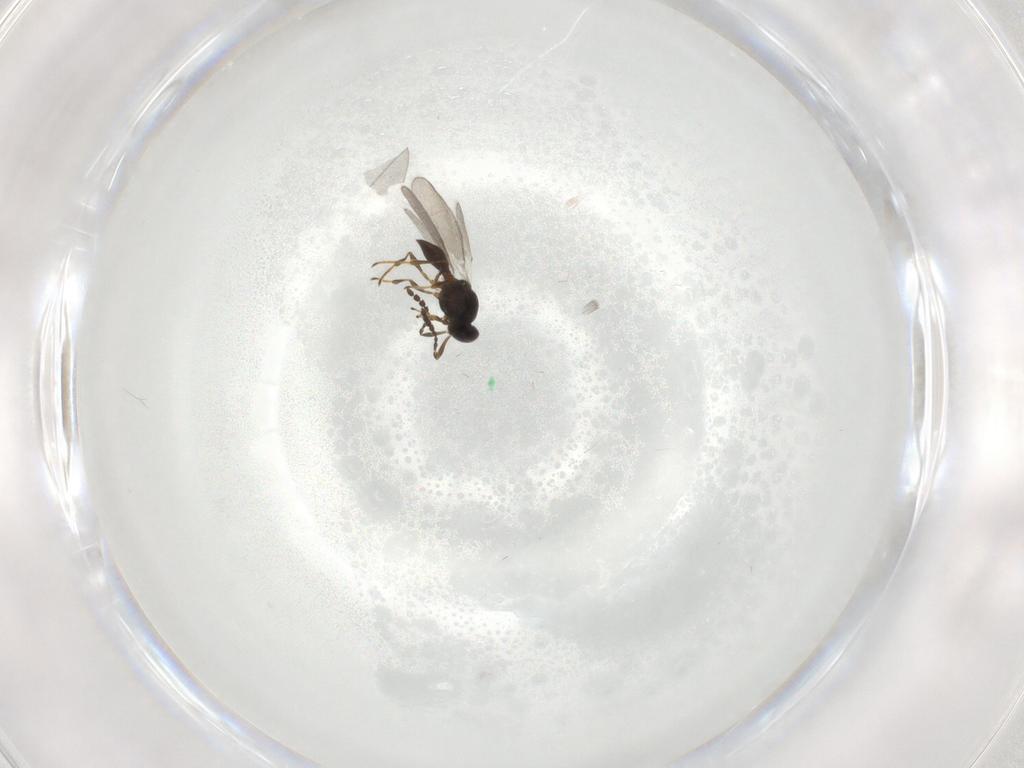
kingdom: Animalia
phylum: Arthropoda
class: Insecta
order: Hymenoptera
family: Platygastridae
